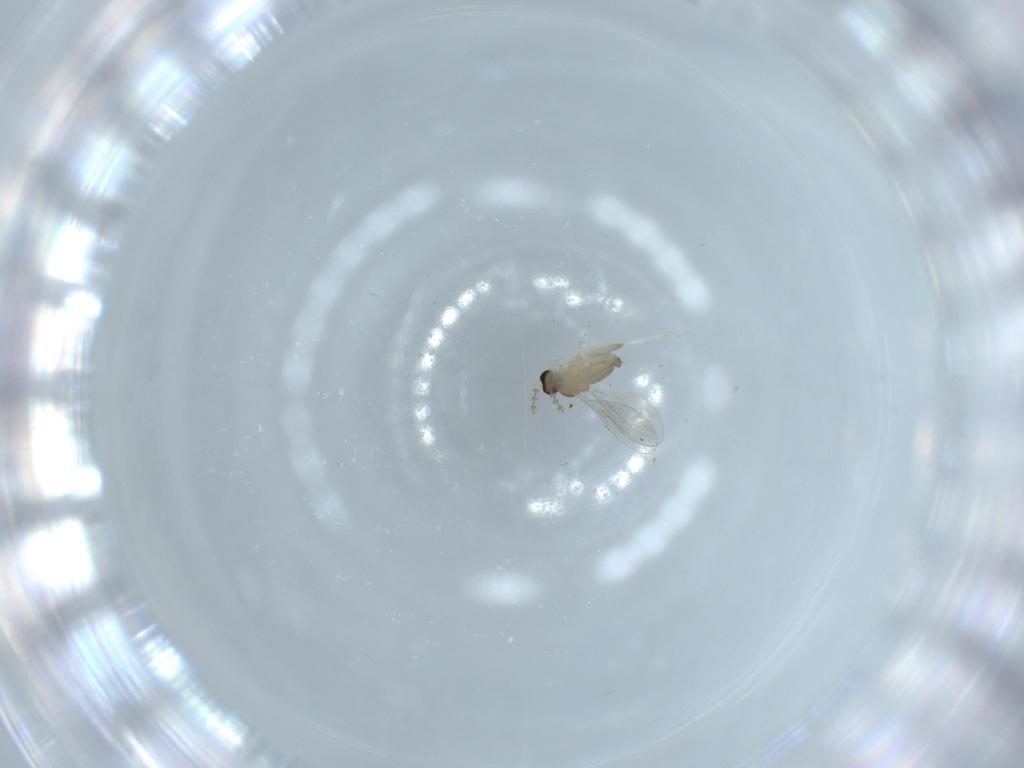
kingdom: Animalia
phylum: Arthropoda
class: Insecta
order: Diptera
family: Cecidomyiidae
